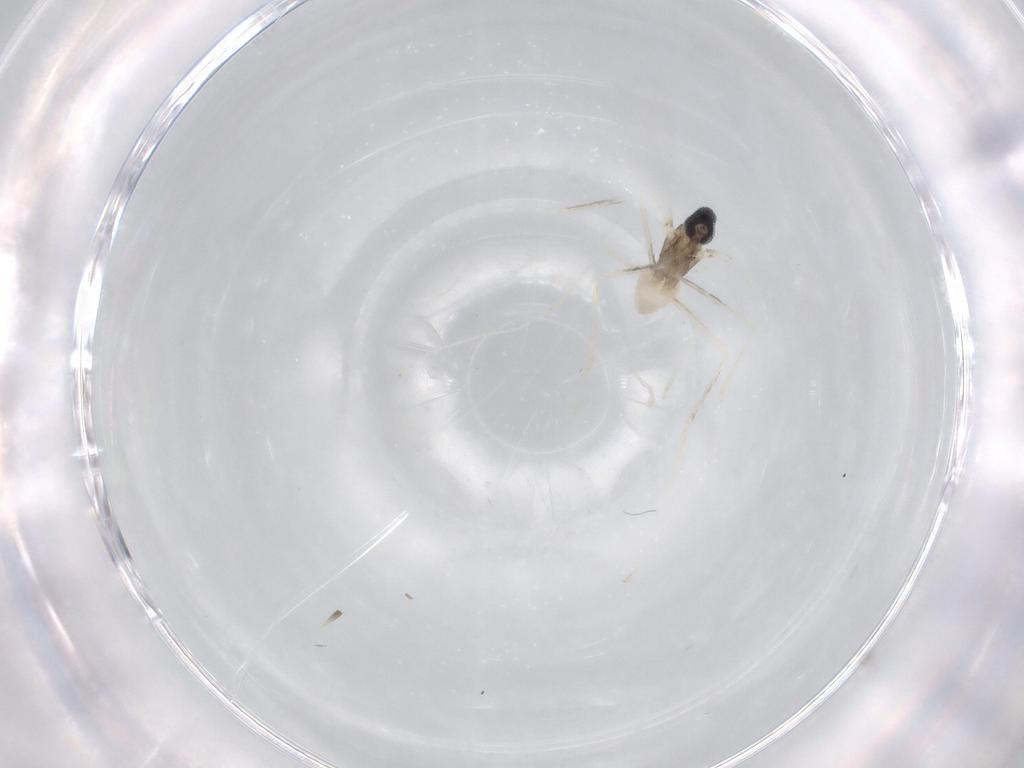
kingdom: Animalia
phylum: Arthropoda
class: Insecta
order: Diptera
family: Cecidomyiidae
